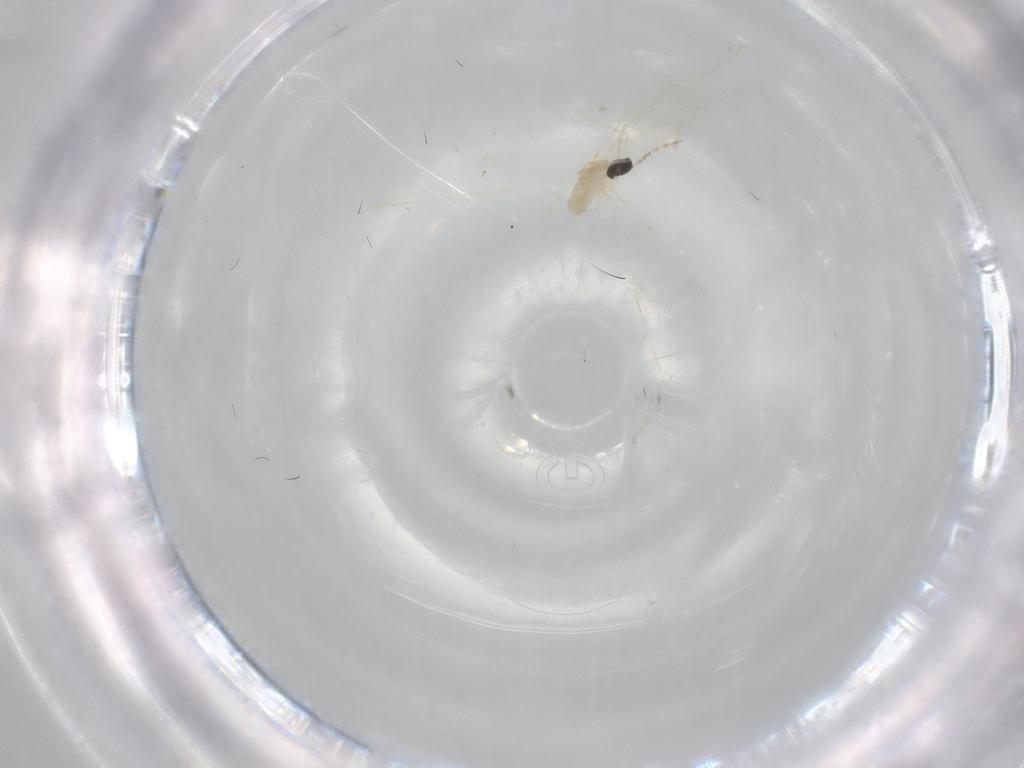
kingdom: Animalia
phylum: Arthropoda
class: Insecta
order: Diptera
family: Cecidomyiidae
